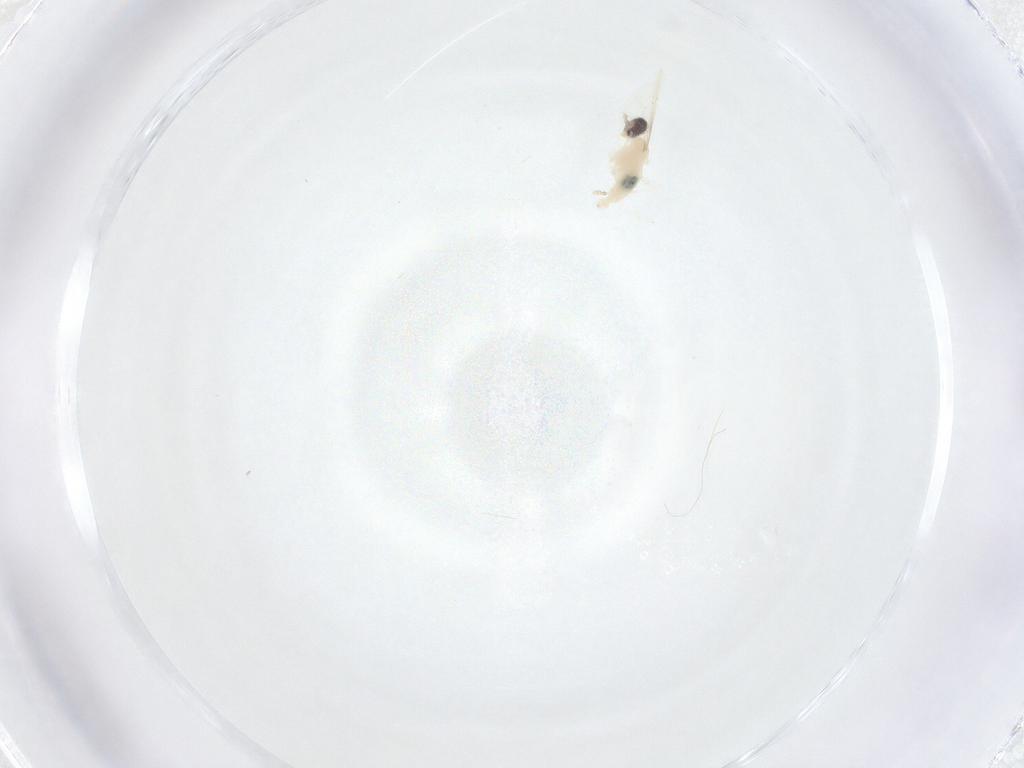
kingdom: Animalia
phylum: Arthropoda
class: Insecta
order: Diptera
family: Cecidomyiidae
